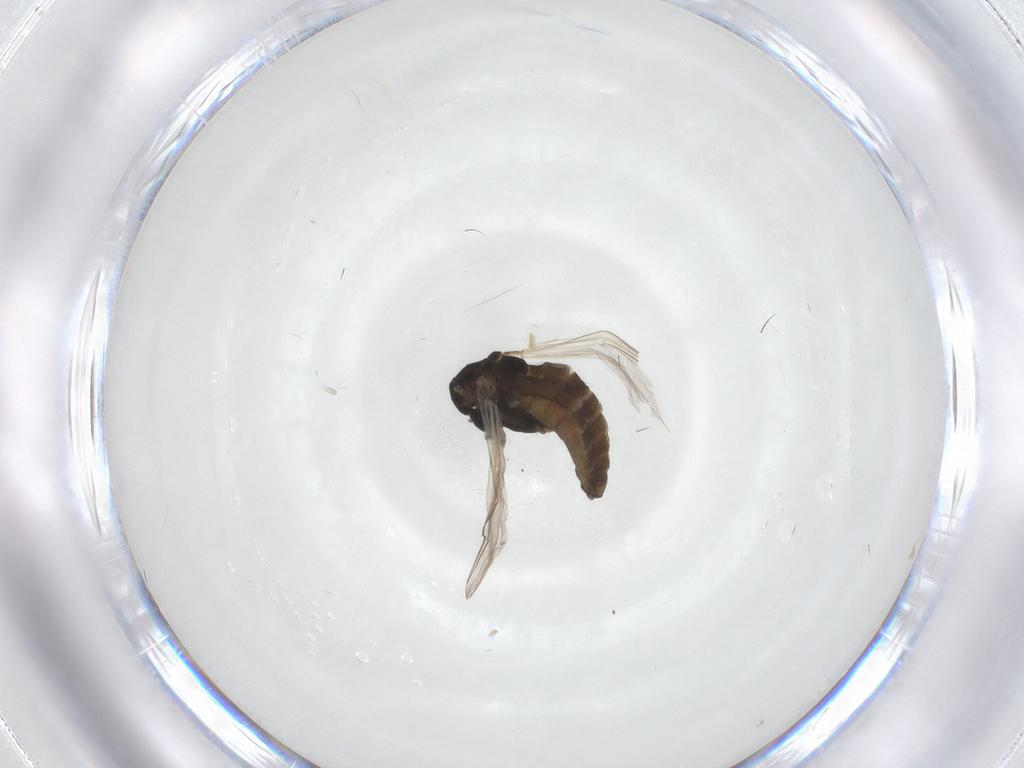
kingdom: Animalia
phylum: Arthropoda
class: Insecta
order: Diptera
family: Chironomidae
